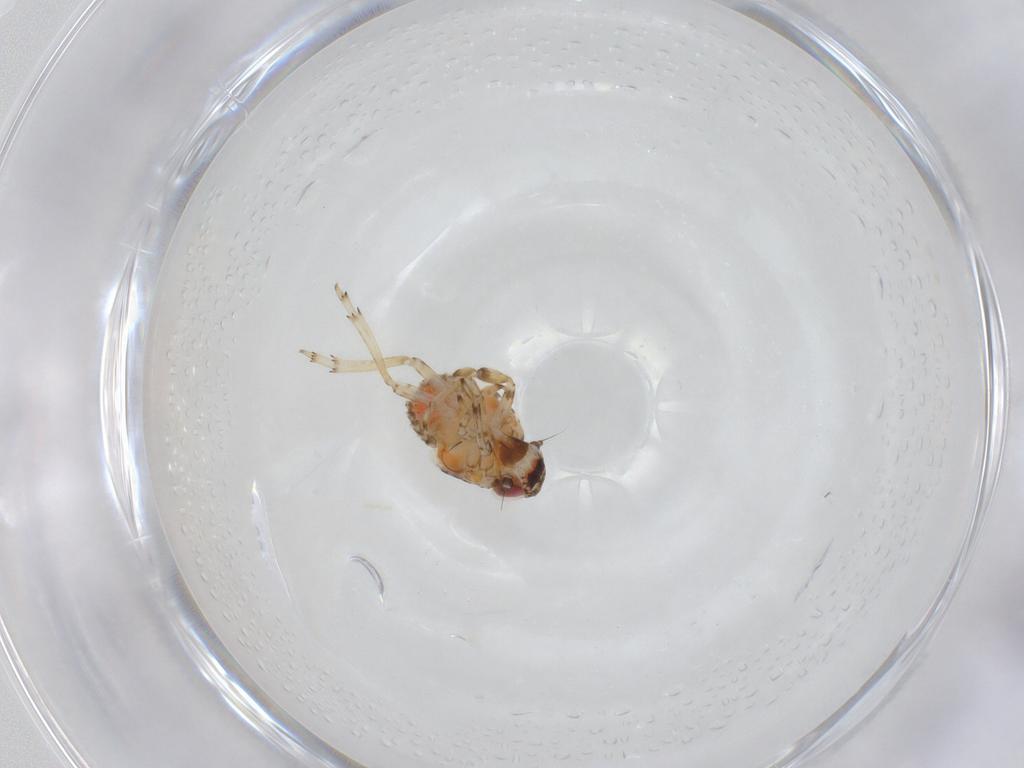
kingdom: Animalia
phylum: Arthropoda
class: Insecta
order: Hemiptera
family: Issidae
